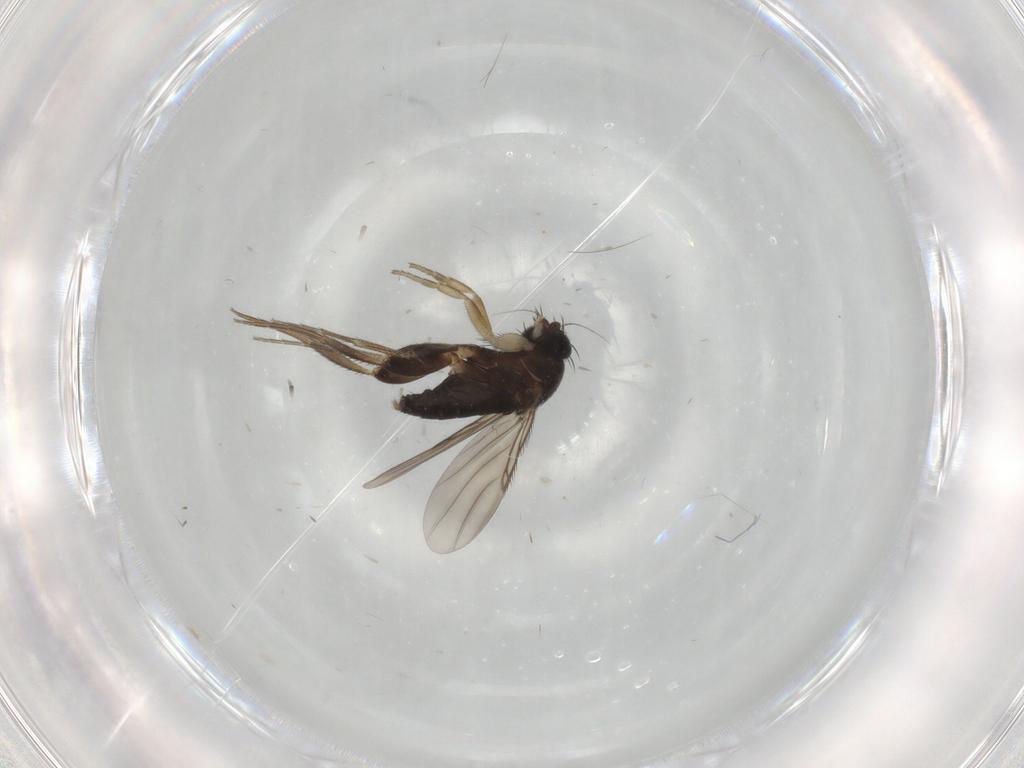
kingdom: Animalia
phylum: Arthropoda
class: Insecta
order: Diptera
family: Phoridae
